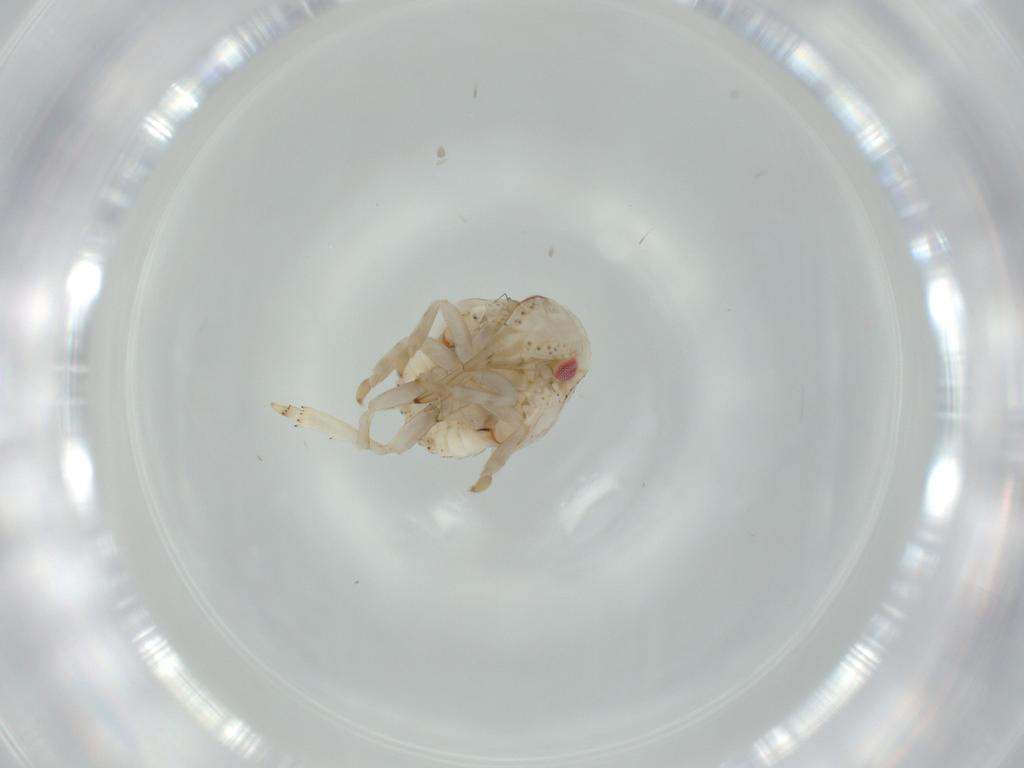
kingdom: Animalia
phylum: Arthropoda
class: Insecta
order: Hemiptera
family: Acanaloniidae
